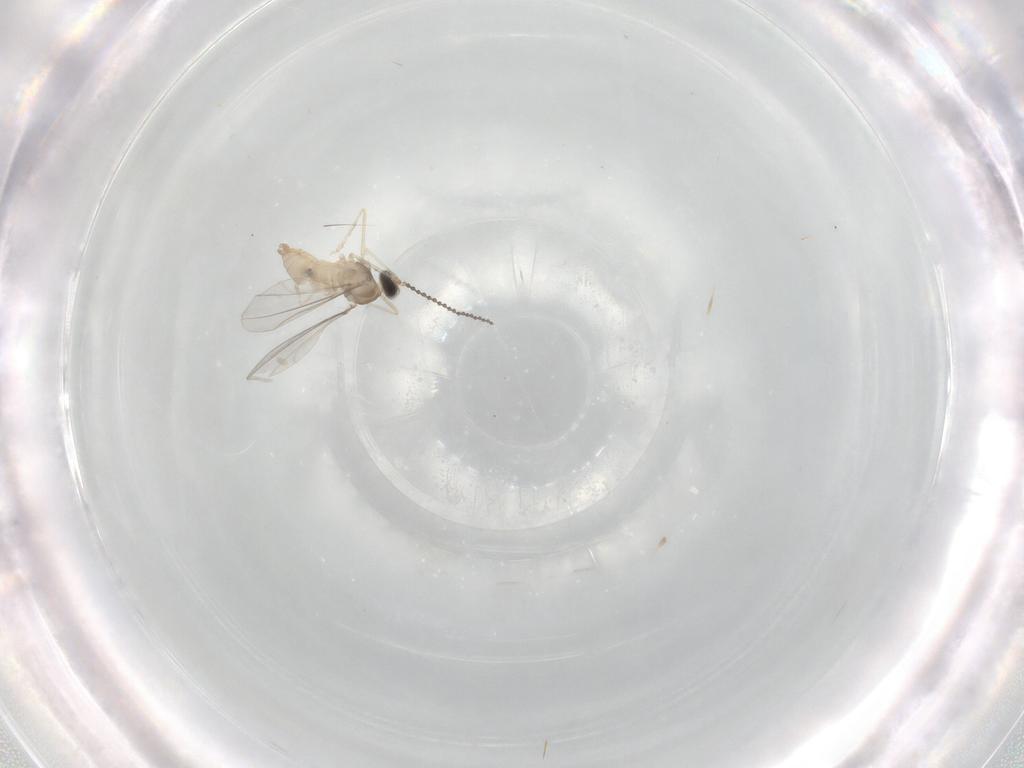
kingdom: Animalia
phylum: Arthropoda
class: Insecta
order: Diptera
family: Cecidomyiidae
